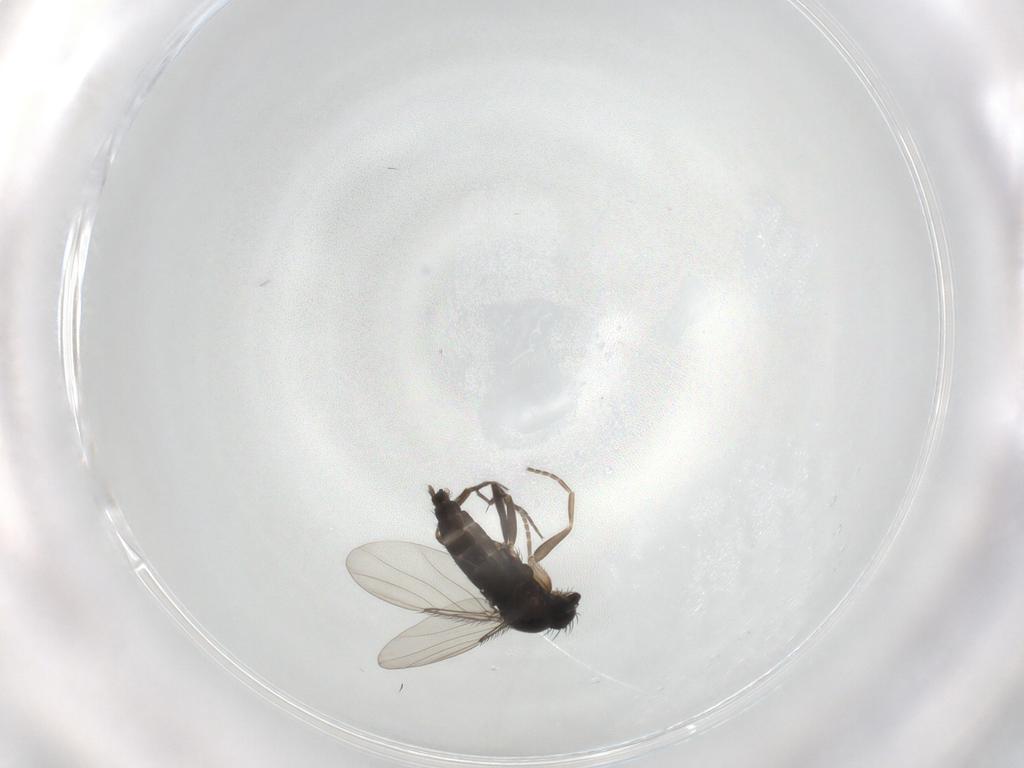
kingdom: Animalia
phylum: Arthropoda
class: Insecta
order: Diptera
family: Phoridae
